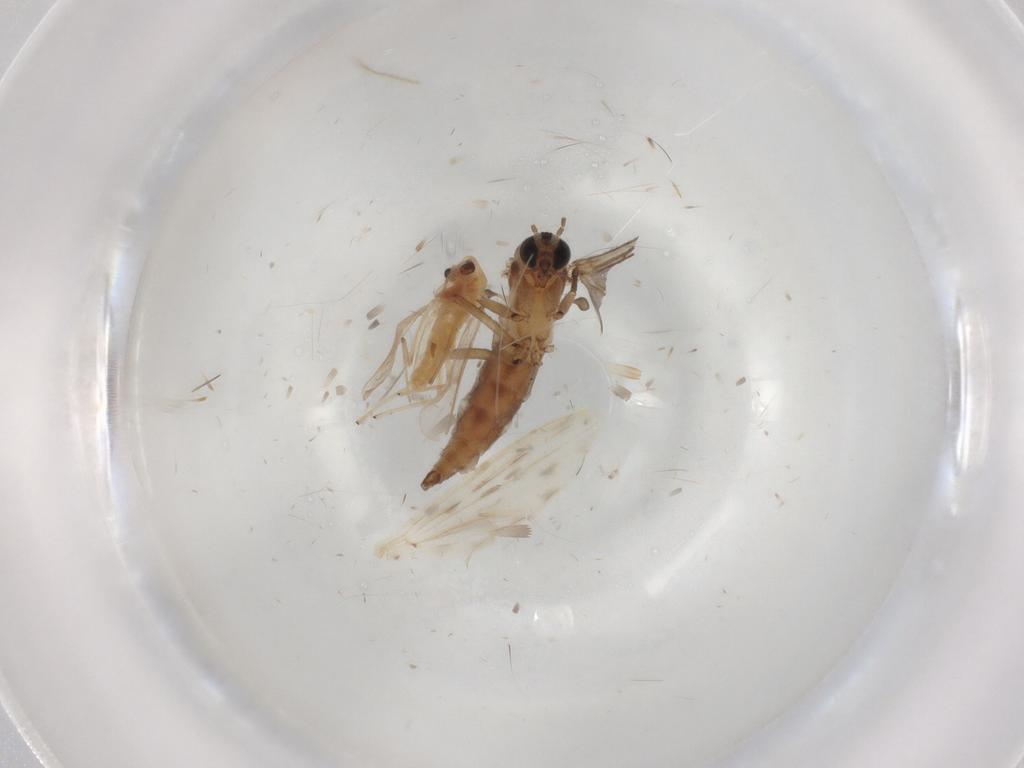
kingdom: Animalia
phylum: Arthropoda
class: Insecta
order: Diptera
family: Sciaridae
